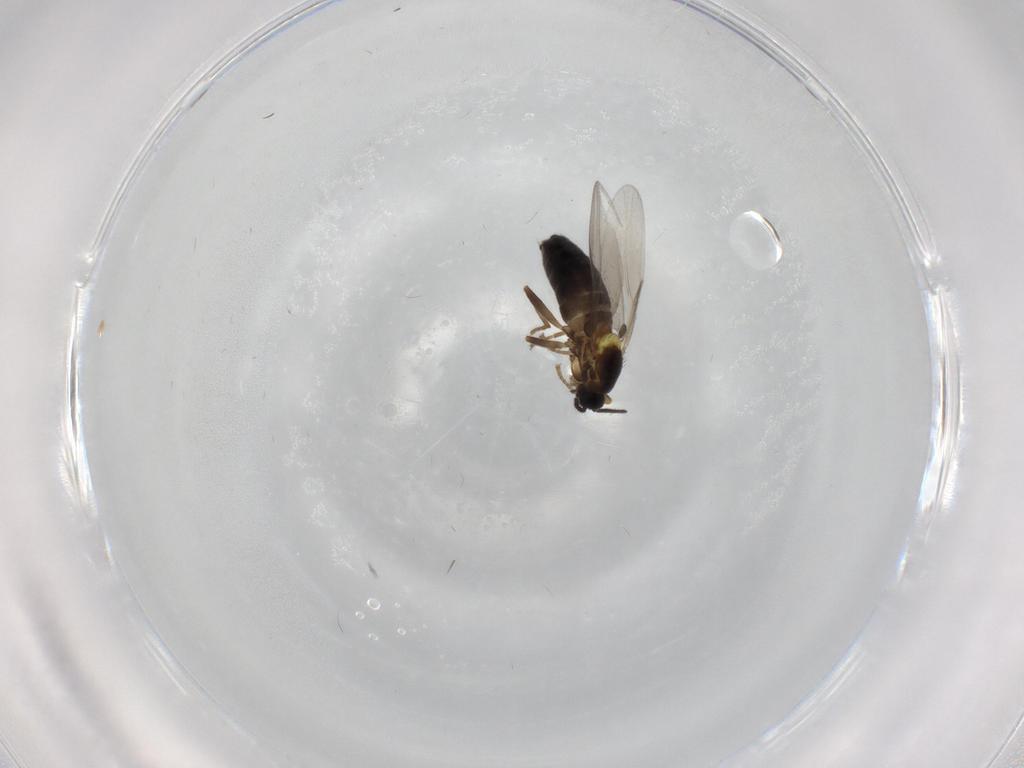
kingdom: Animalia
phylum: Arthropoda
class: Insecta
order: Diptera
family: Scatopsidae
